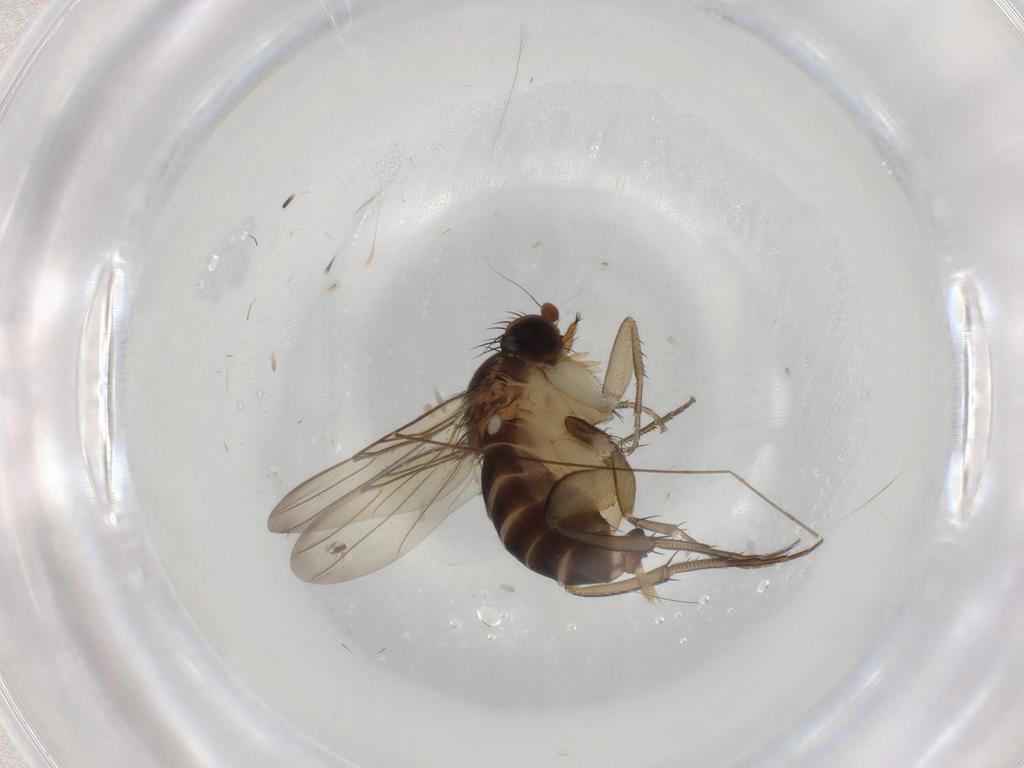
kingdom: Animalia
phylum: Arthropoda
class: Insecta
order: Diptera
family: Phoridae
